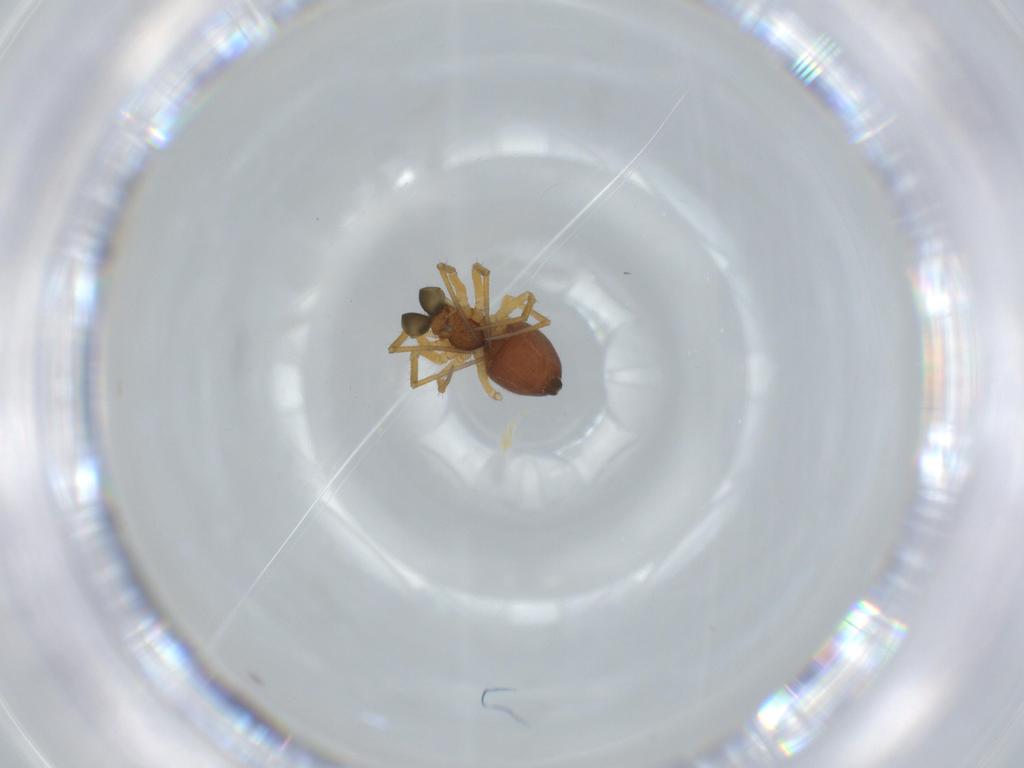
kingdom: Animalia
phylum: Arthropoda
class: Arachnida
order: Araneae
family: Linyphiidae
